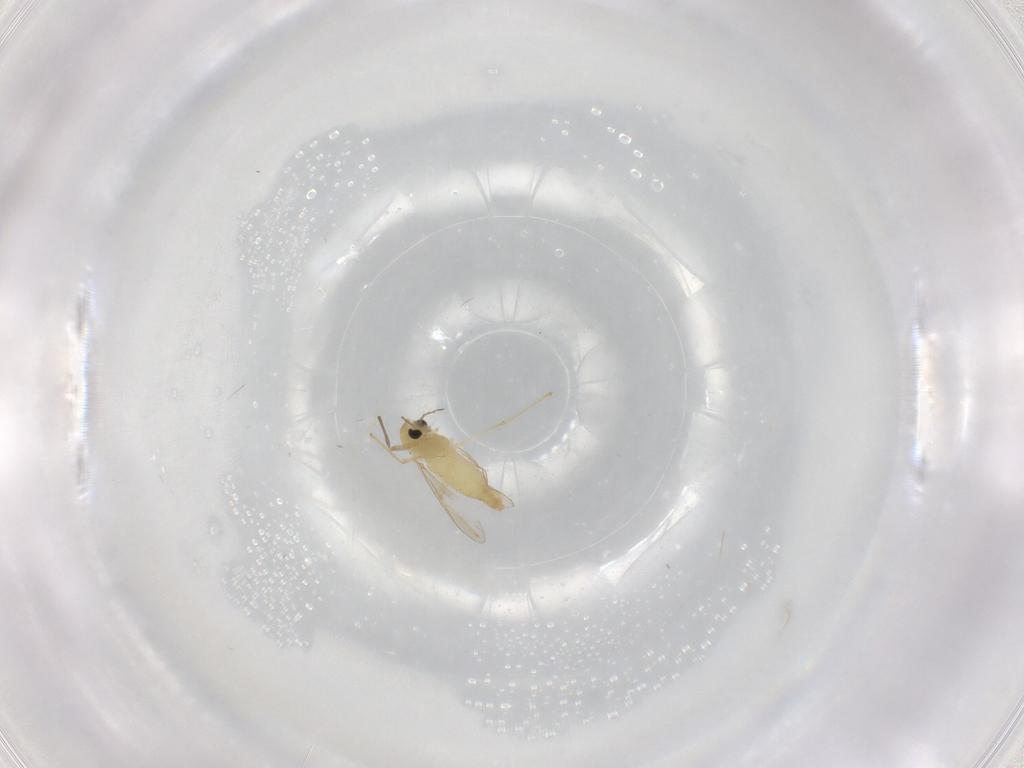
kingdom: Animalia
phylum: Arthropoda
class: Insecta
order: Diptera
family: Chironomidae
